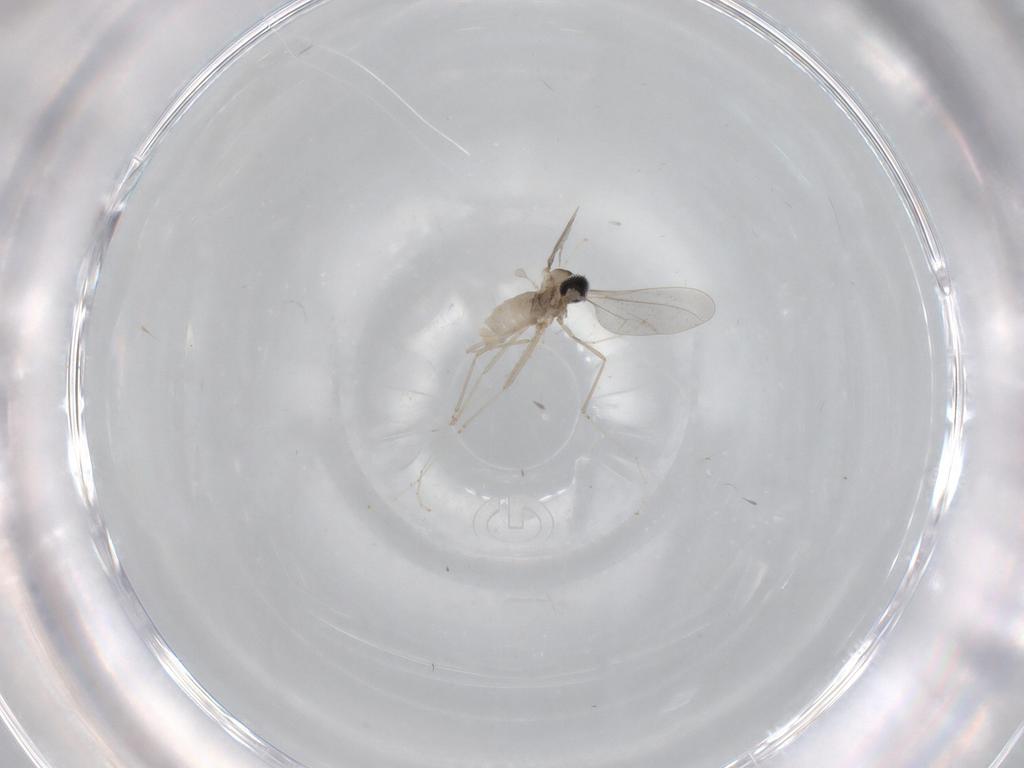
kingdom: Animalia
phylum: Arthropoda
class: Insecta
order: Diptera
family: Cecidomyiidae
